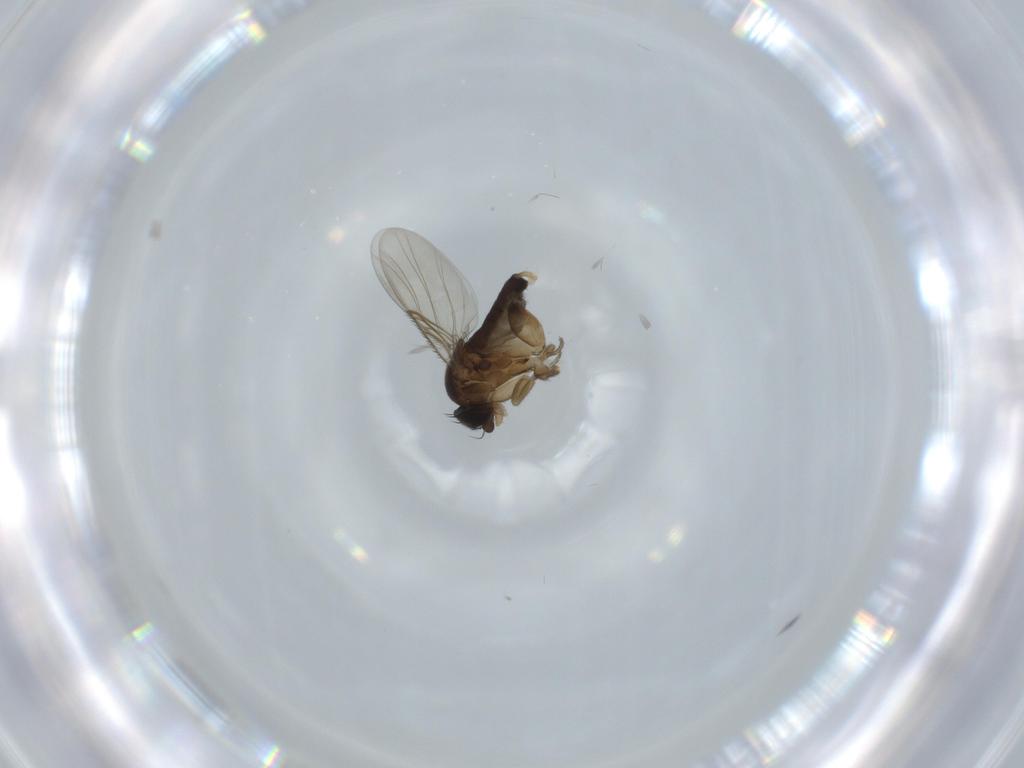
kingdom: Animalia
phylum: Arthropoda
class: Insecta
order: Diptera
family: Phoridae
